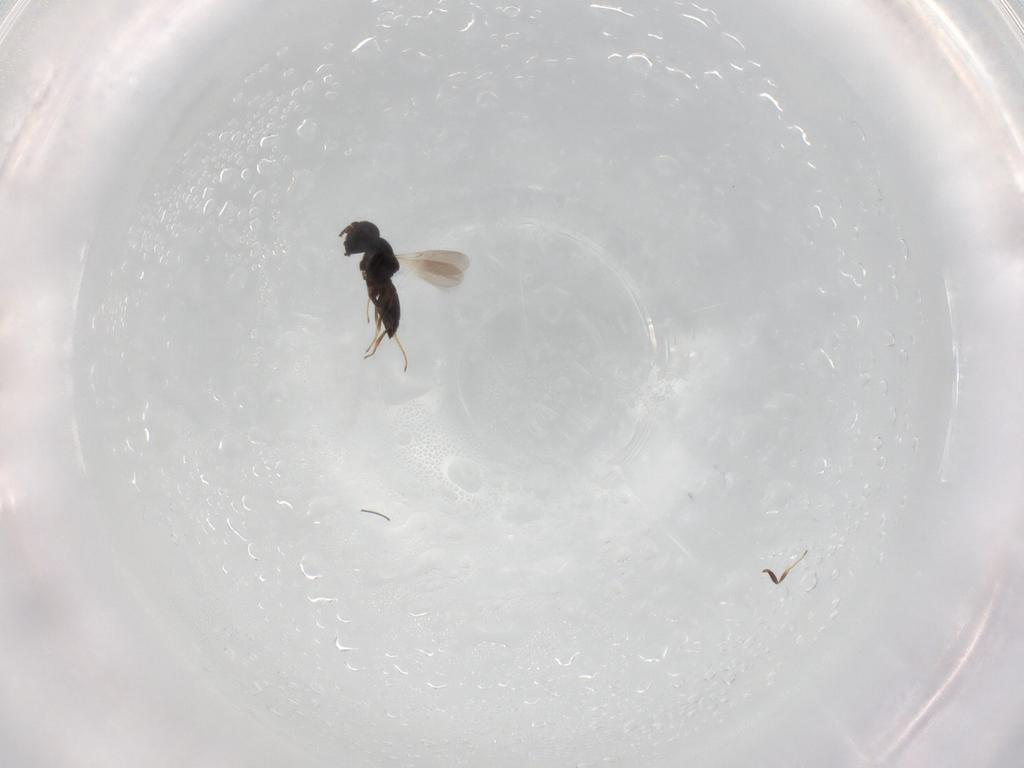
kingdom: Animalia
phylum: Arthropoda
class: Insecta
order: Hymenoptera
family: Scelionidae
